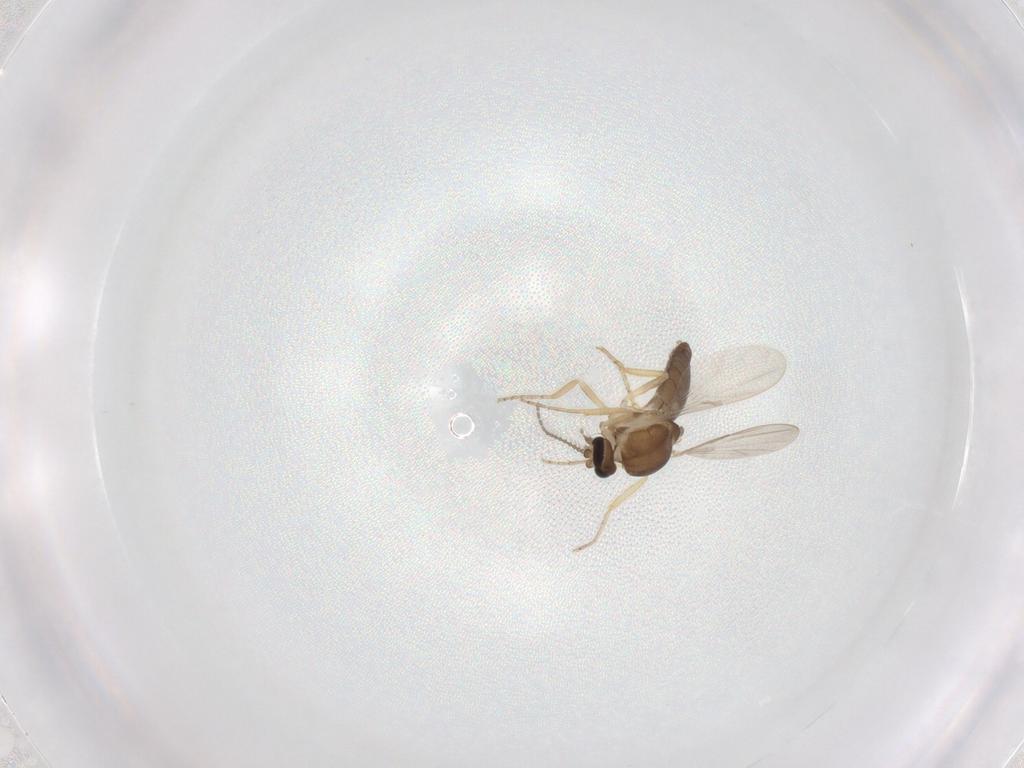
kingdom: Animalia
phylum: Arthropoda
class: Insecta
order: Diptera
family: Ceratopogonidae
